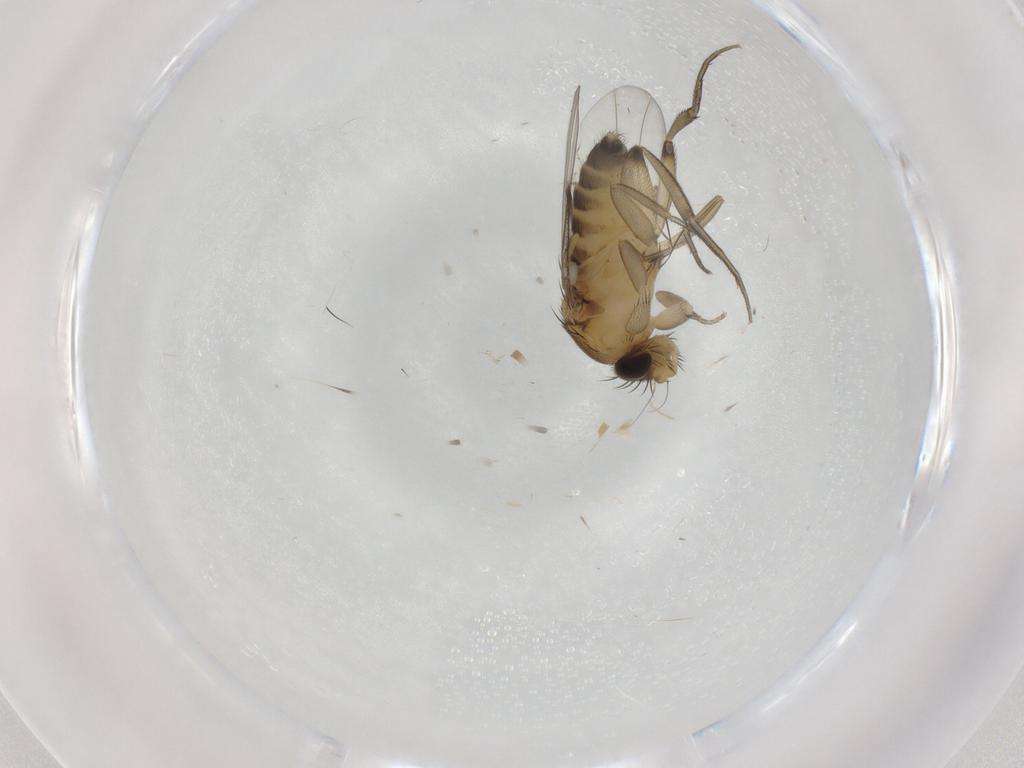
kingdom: Animalia
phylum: Arthropoda
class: Insecta
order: Diptera
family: Phoridae
